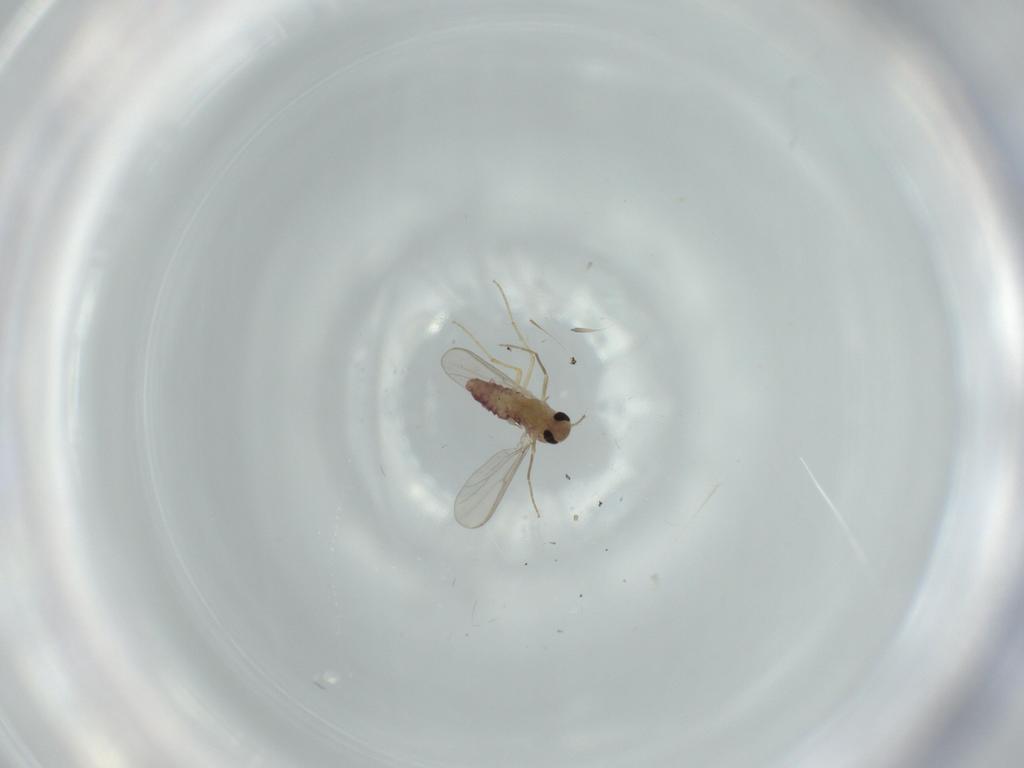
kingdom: Animalia
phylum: Arthropoda
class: Insecta
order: Diptera
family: Chironomidae
